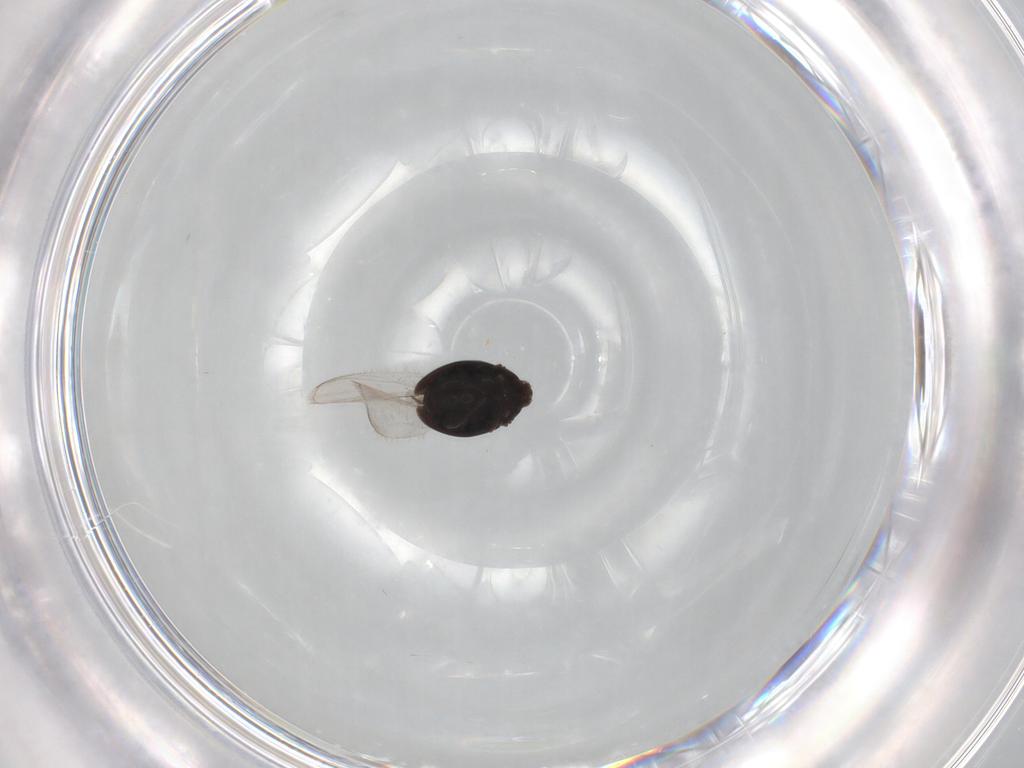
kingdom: Animalia
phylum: Arthropoda
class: Insecta
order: Coleoptera
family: Corylophidae
